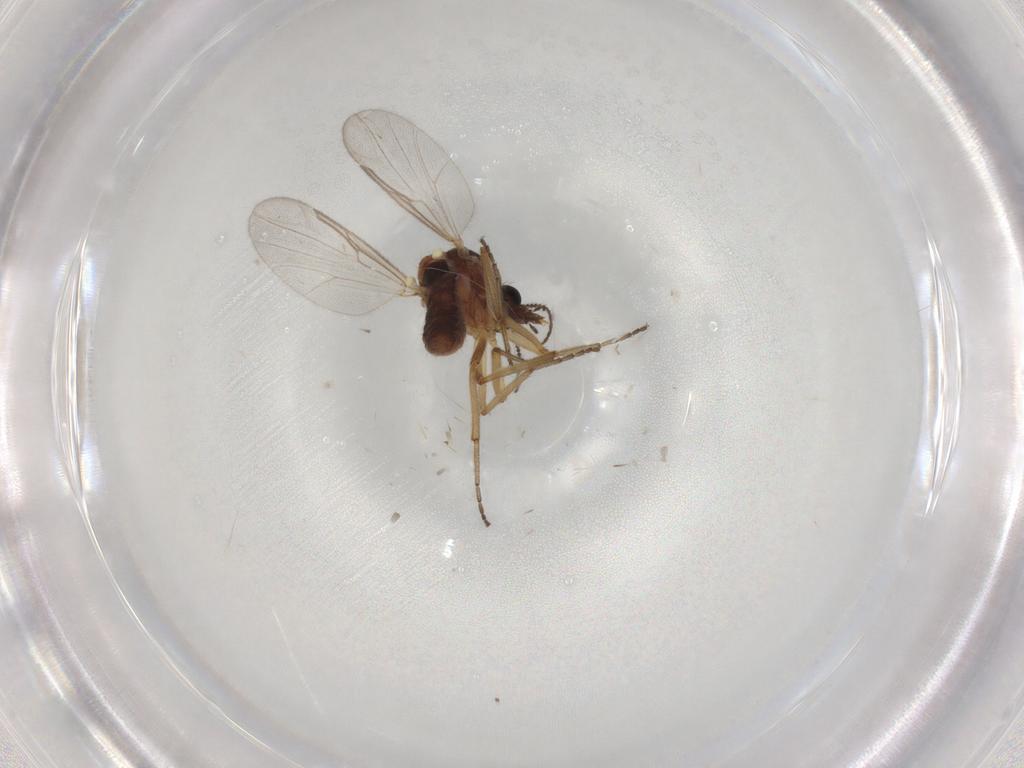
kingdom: Animalia
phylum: Arthropoda
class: Insecta
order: Diptera
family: Ceratopogonidae
